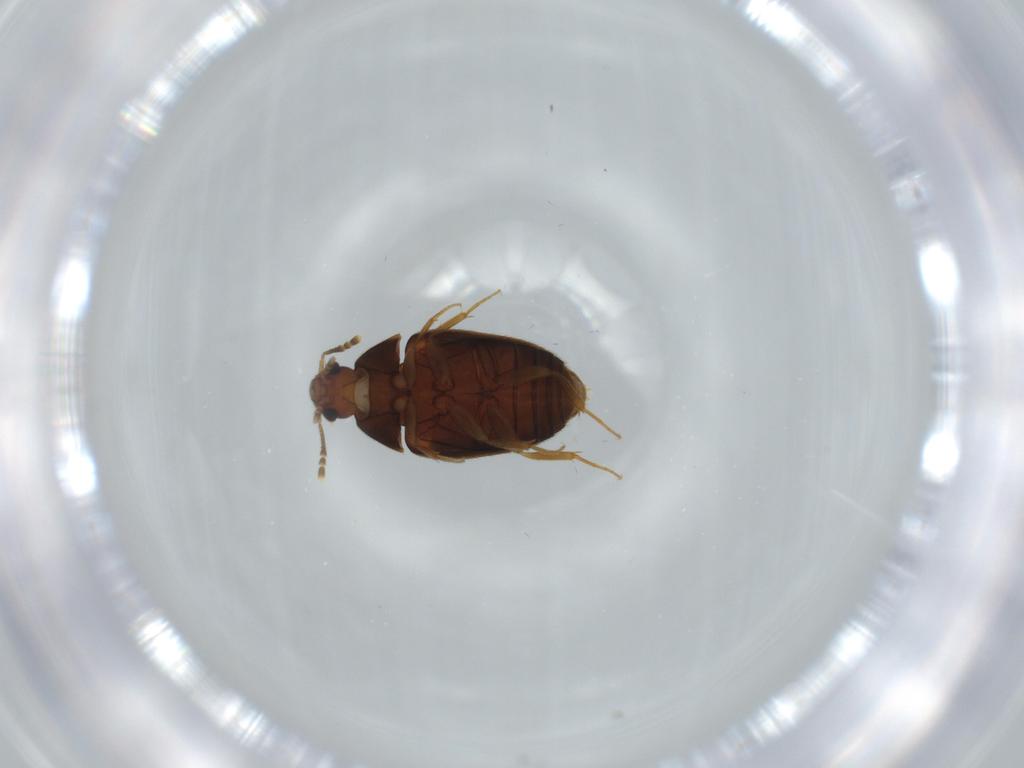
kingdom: Animalia
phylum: Arthropoda
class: Insecta
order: Coleoptera
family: Mycetophagidae
